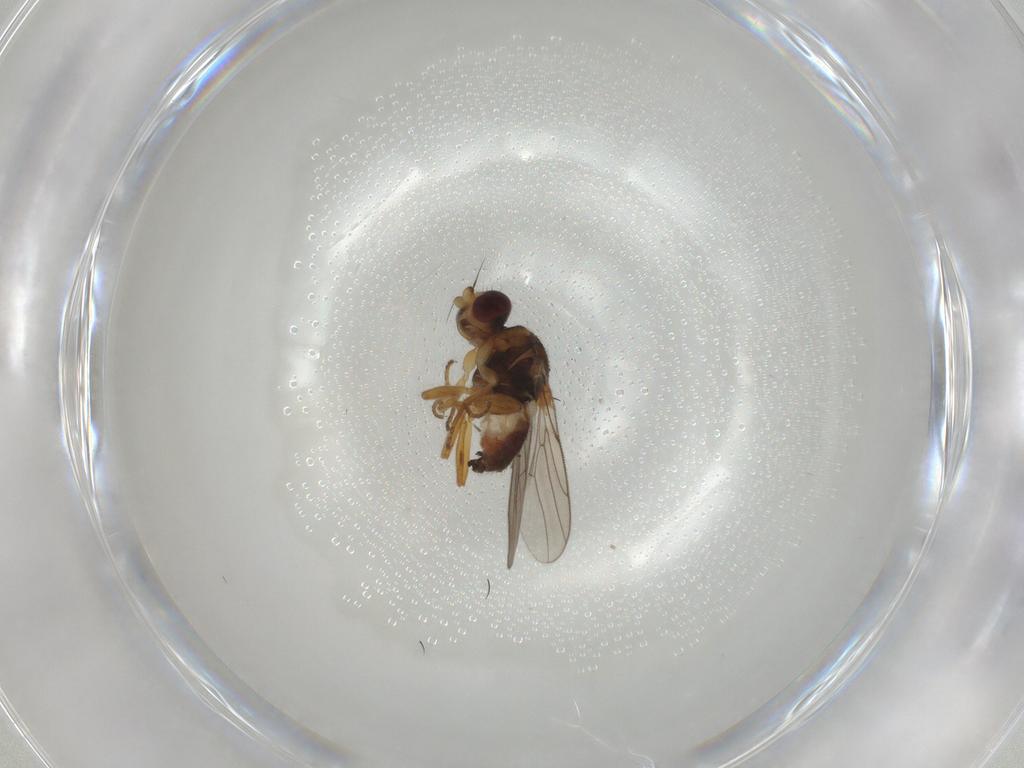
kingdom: Animalia
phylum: Arthropoda
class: Insecta
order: Diptera
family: Chloropidae
